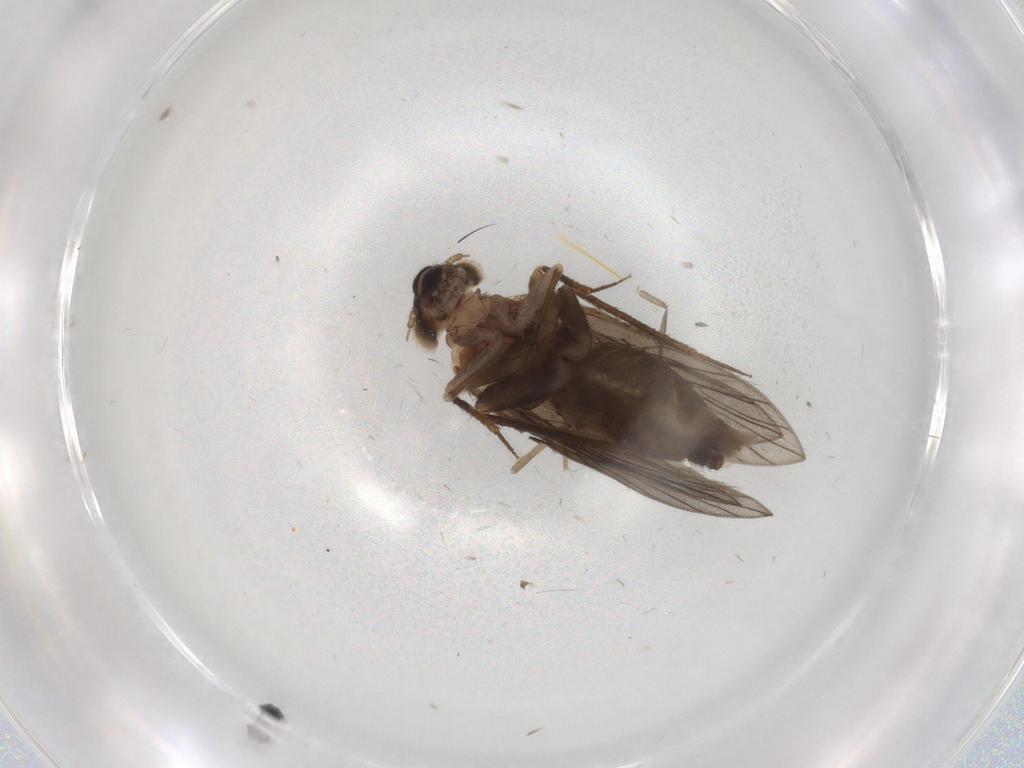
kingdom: Animalia
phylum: Arthropoda
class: Insecta
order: Psocodea
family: Lepidopsocidae
